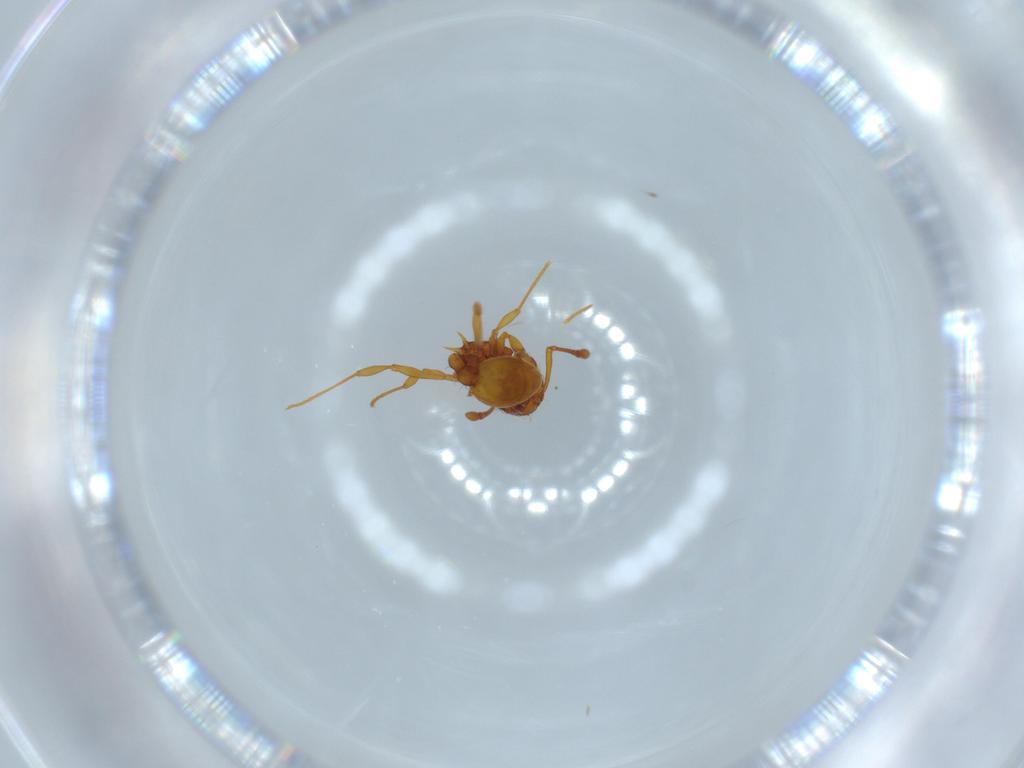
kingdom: Animalia
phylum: Arthropoda
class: Insecta
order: Hymenoptera
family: Formicidae
